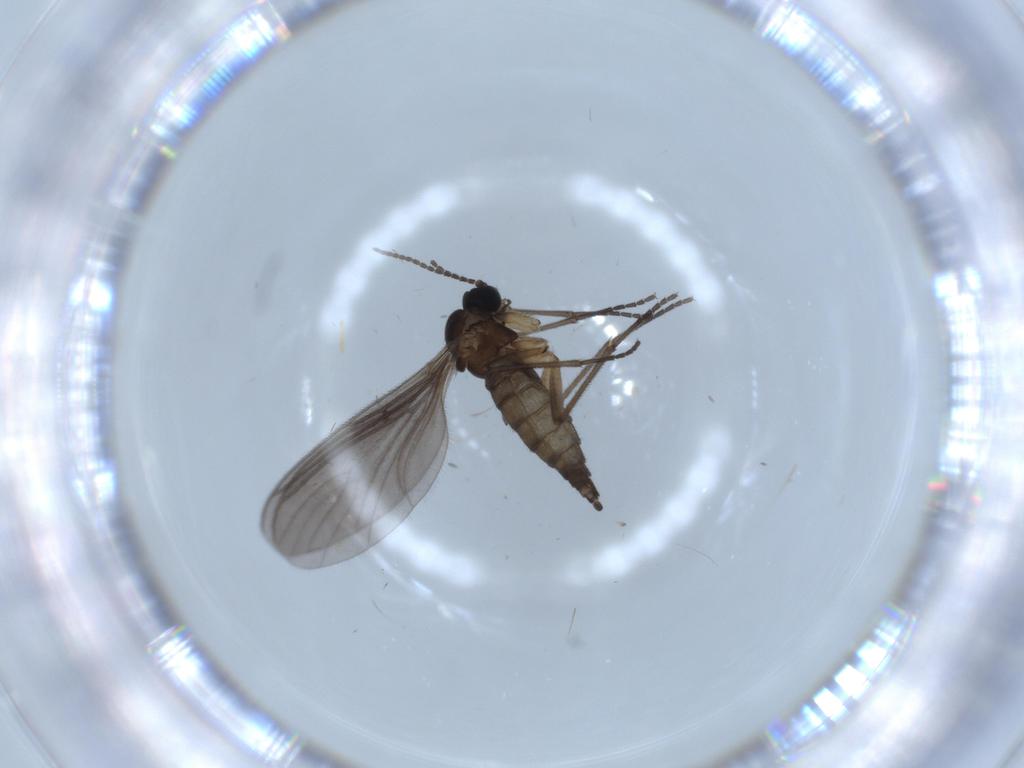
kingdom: Animalia
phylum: Arthropoda
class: Insecta
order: Diptera
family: Sciaridae
